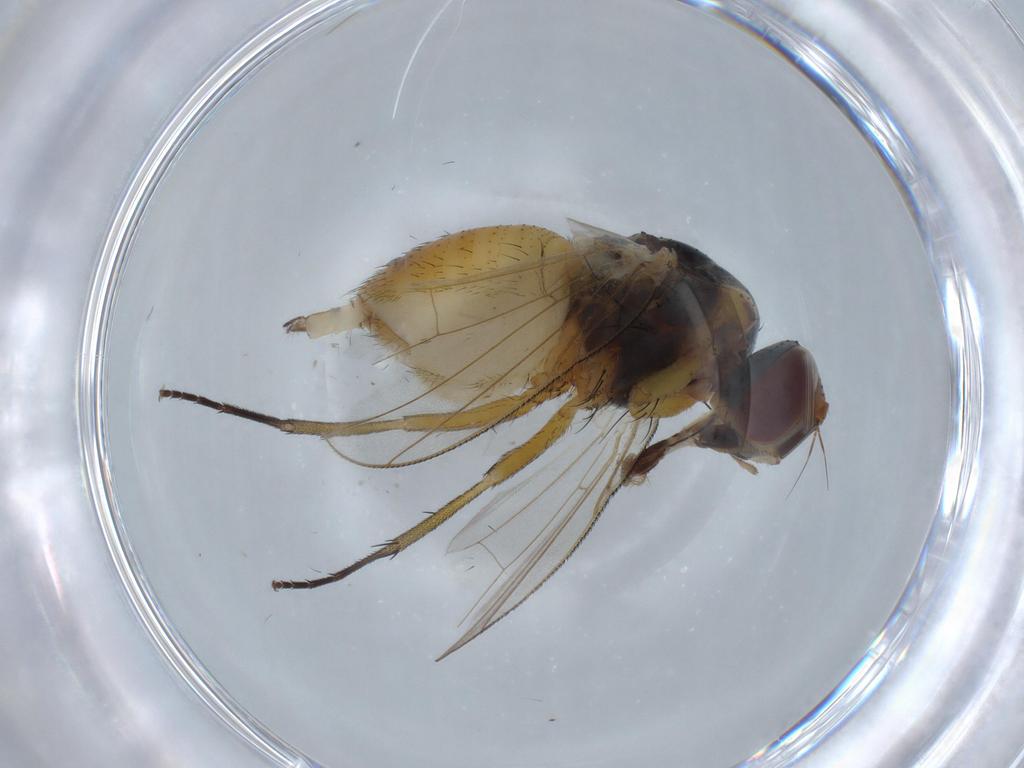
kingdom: Animalia
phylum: Arthropoda
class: Insecta
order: Diptera
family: Muscidae
